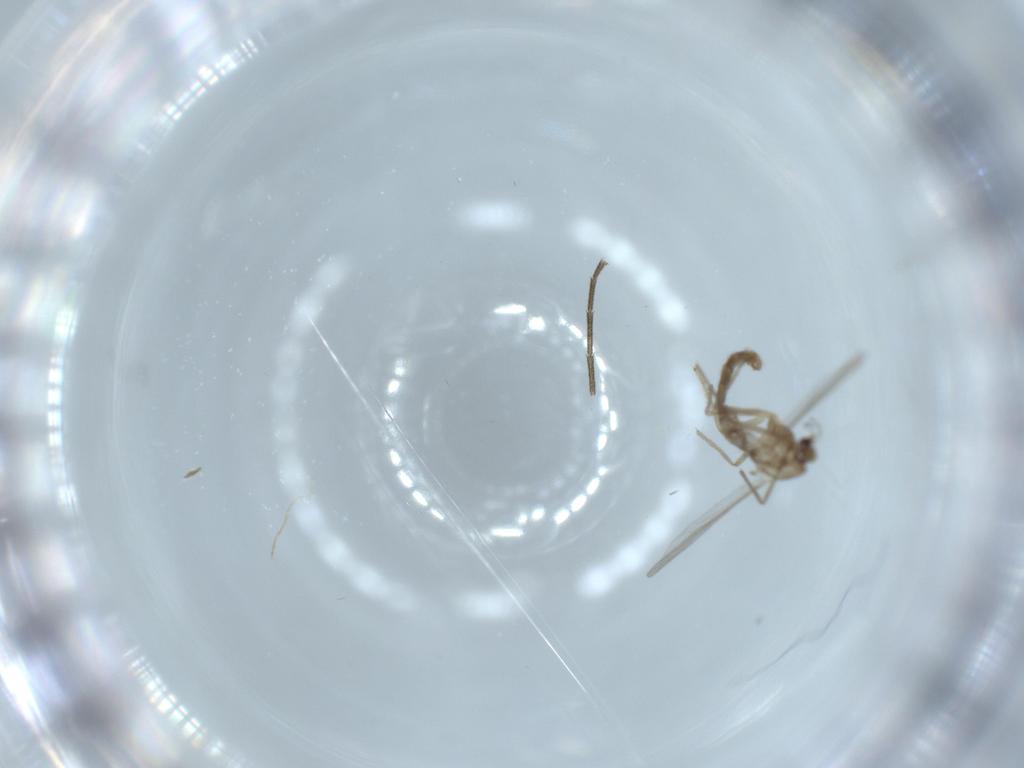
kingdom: Animalia
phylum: Arthropoda
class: Insecta
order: Diptera
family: Chironomidae
